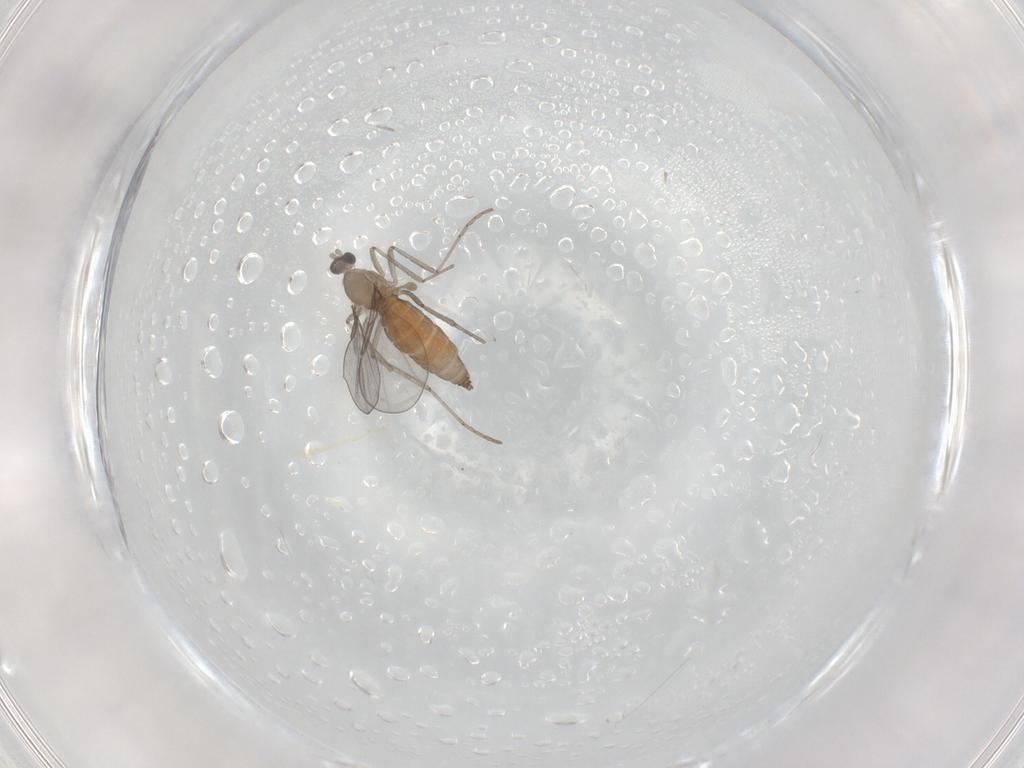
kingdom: Animalia
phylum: Arthropoda
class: Insecta
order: Diptera
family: Cecidomyiidae
